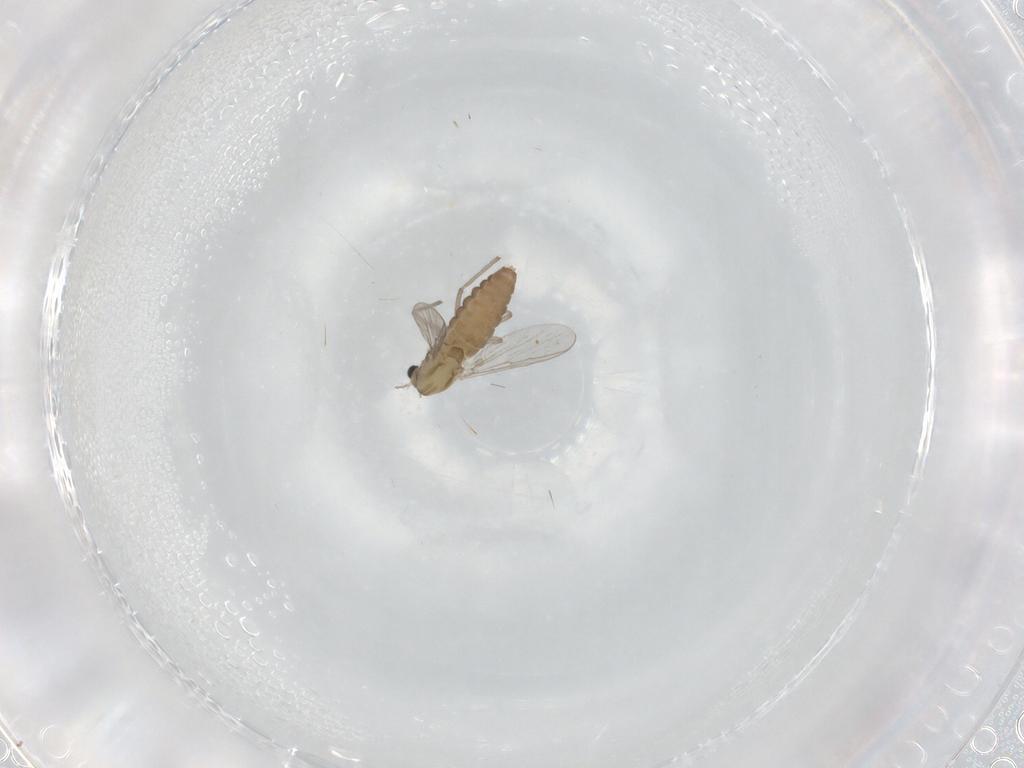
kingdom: Animalia
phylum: Arthropoda
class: Insecta
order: Diptera
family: Chironomidae
